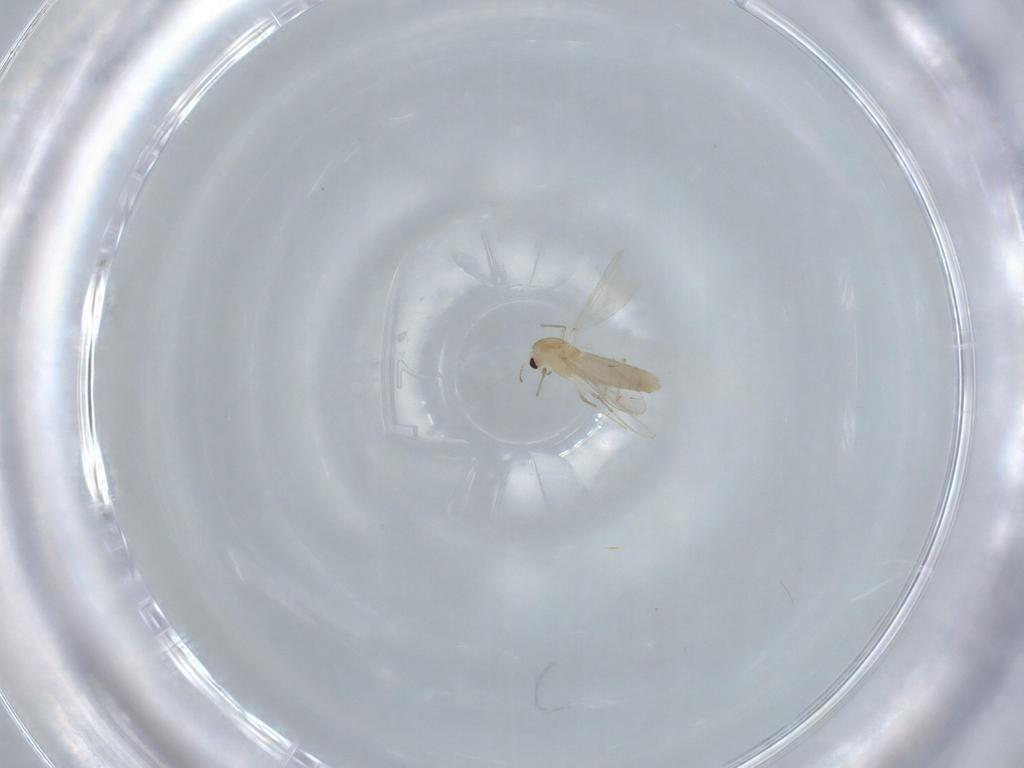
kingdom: Animalia
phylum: Arthropoda
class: Insecta
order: Diptera
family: Chironomidae
